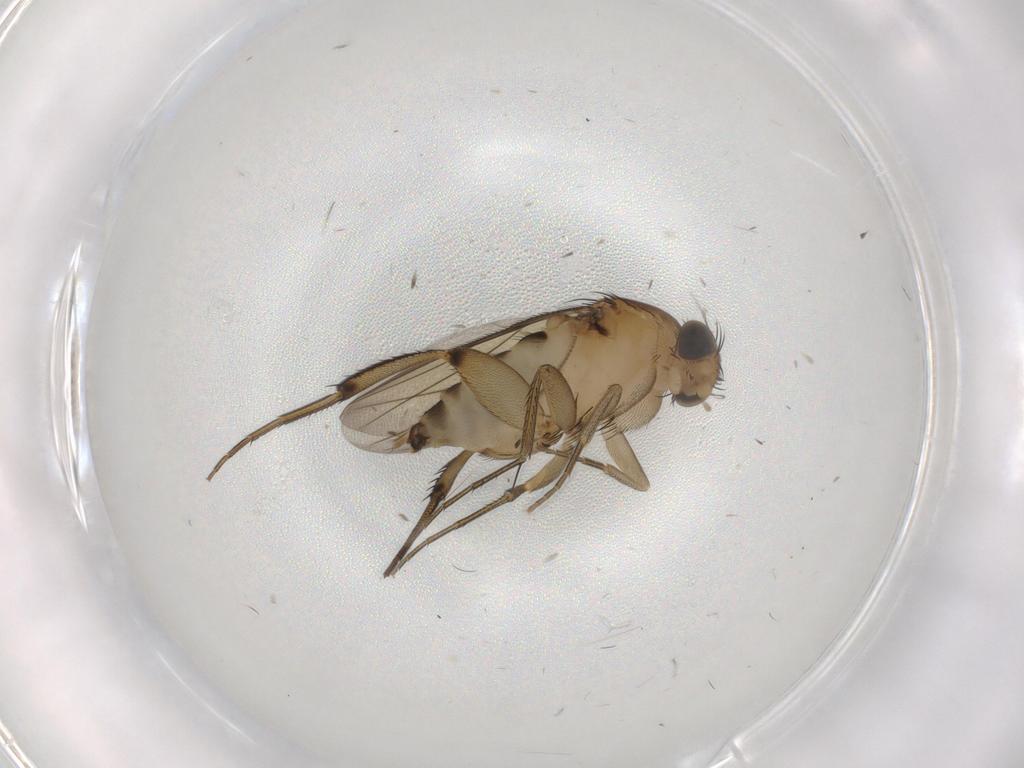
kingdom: Animalia
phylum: Arthropoda
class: Insecta
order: Diptera
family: Phoridae
